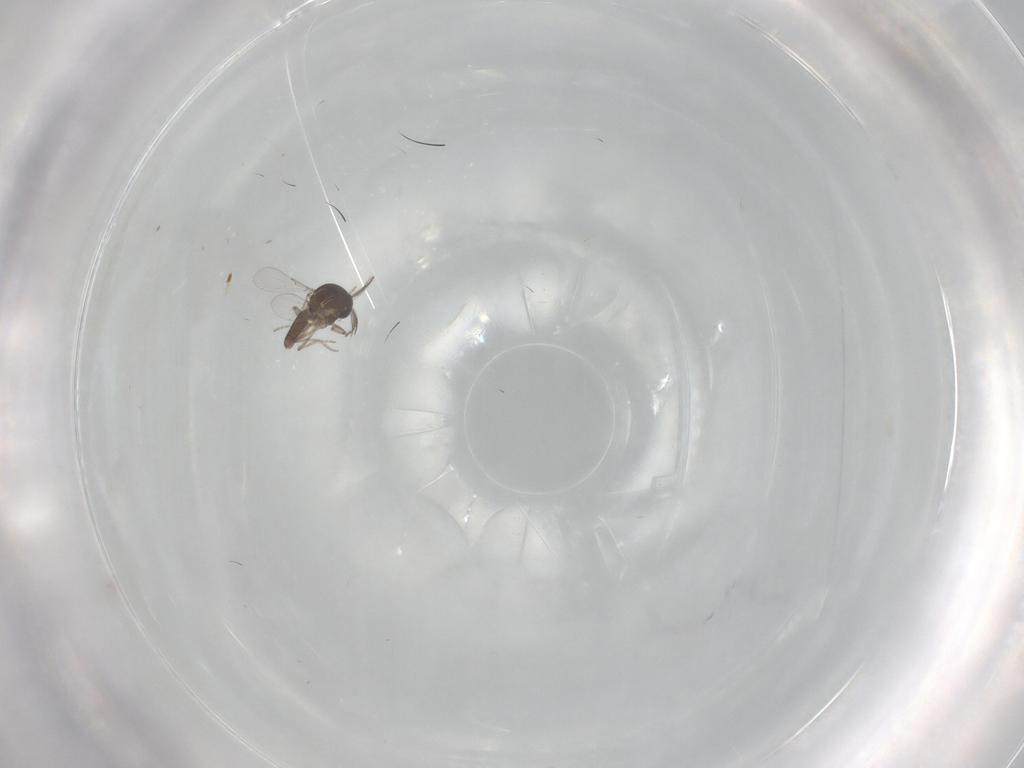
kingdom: Animalia
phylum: Arthropoda
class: Insecta
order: Diptera
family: Ceratopogonidae
